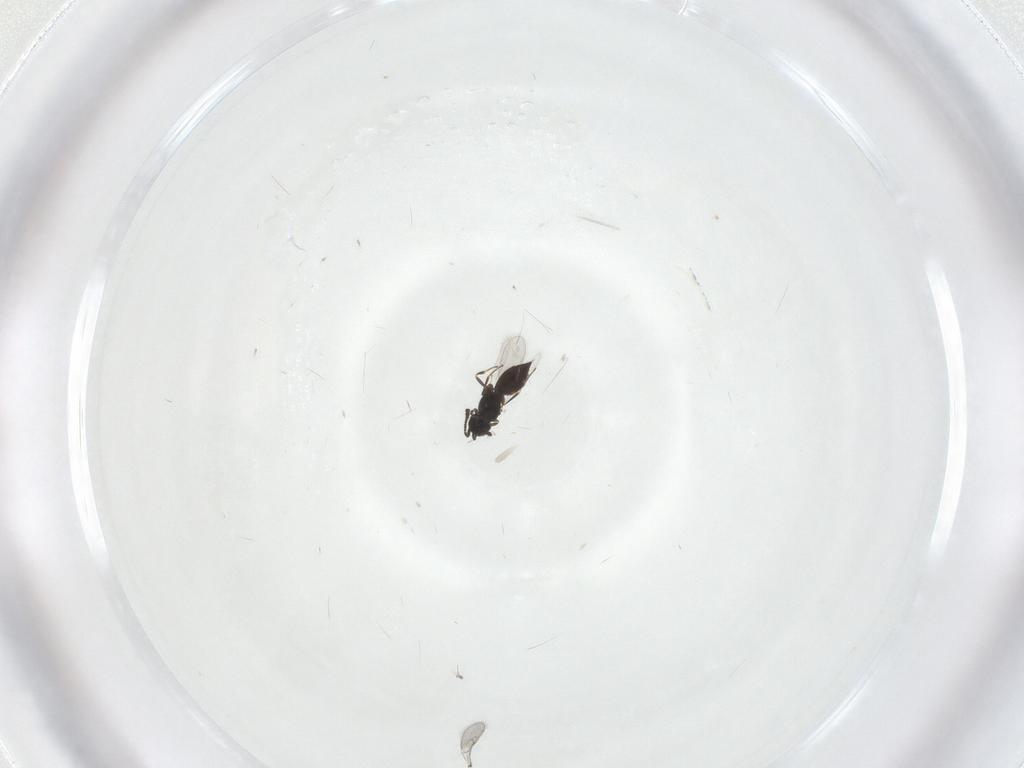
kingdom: Animalia
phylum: Arthropoda
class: Insecta
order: Hymenoptera
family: Scelionidae
